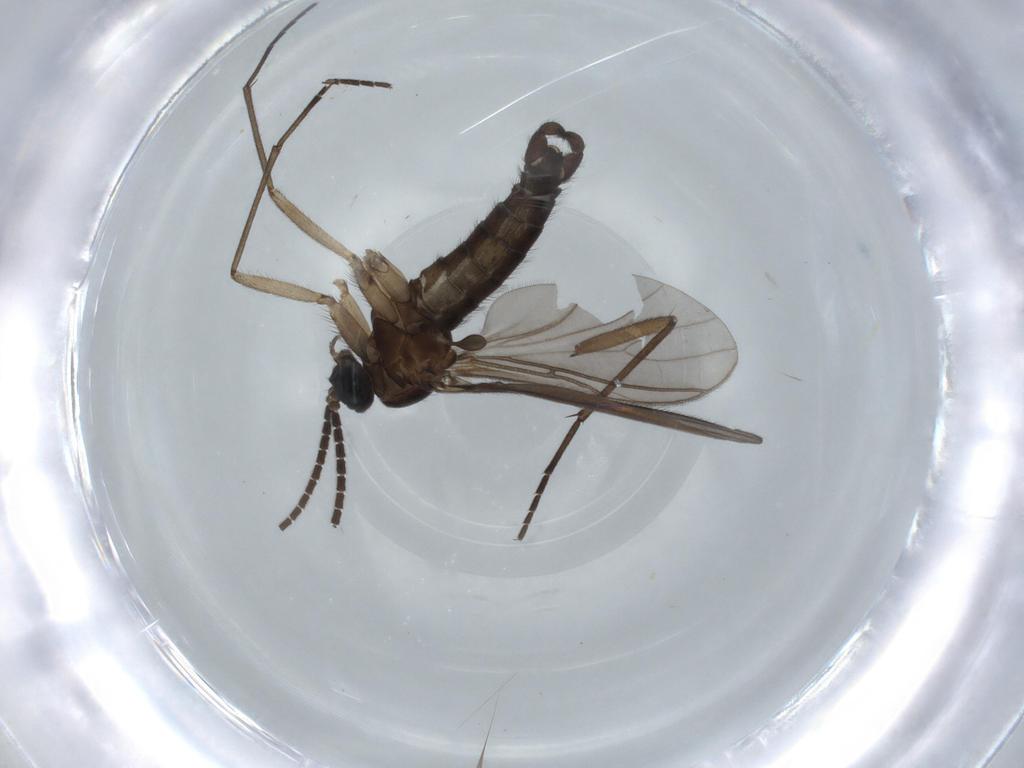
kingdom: Animalia
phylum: Arthropoda
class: Insecta
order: Diptera
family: Sciaridae
